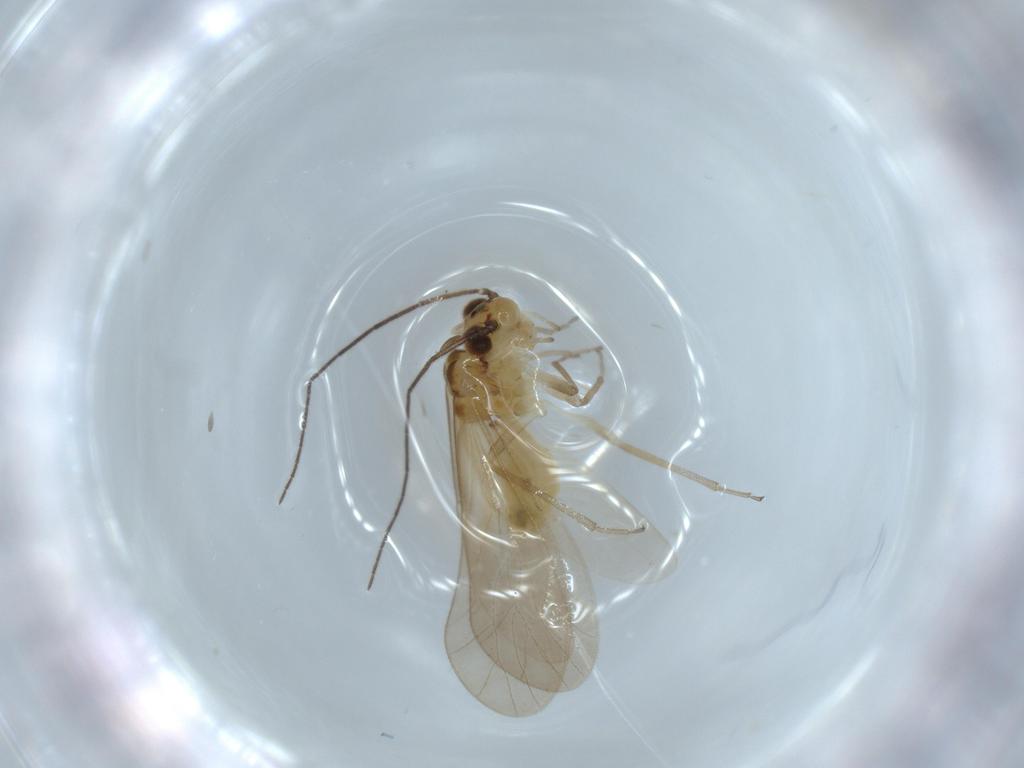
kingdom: Animalia
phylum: Arthropoda
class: Insecta
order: Psocodea
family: Caeciliusidae
